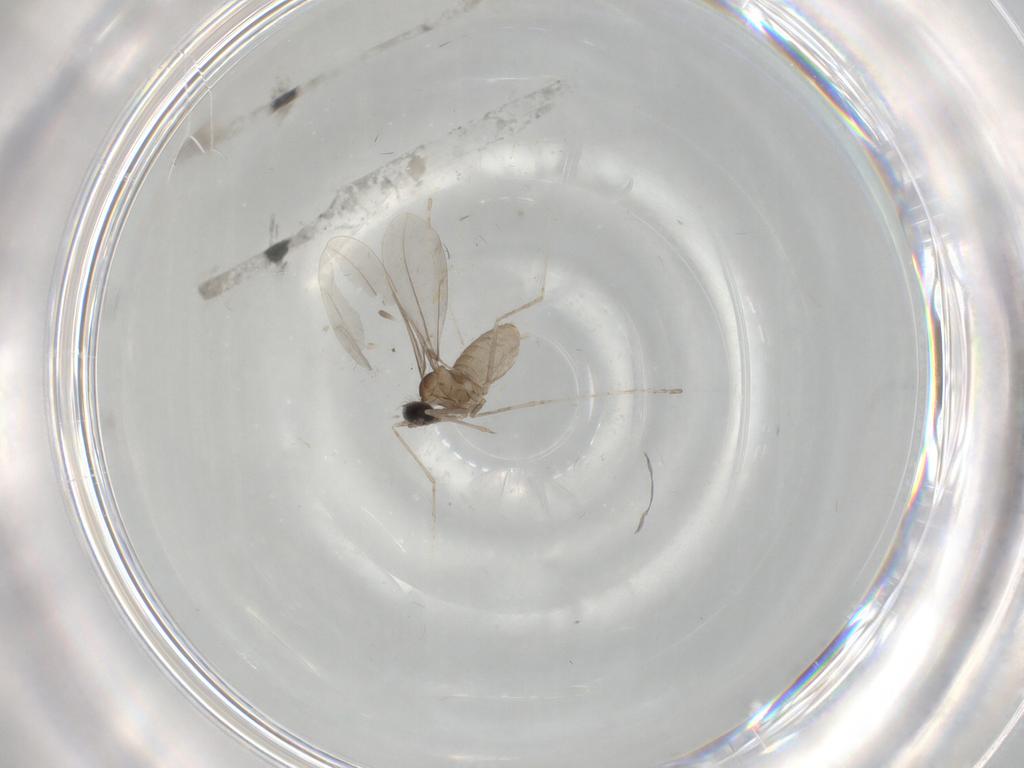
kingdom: Animalia
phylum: Arthropoda
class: Insecta
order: Diptera
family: Cecidomyiidae
